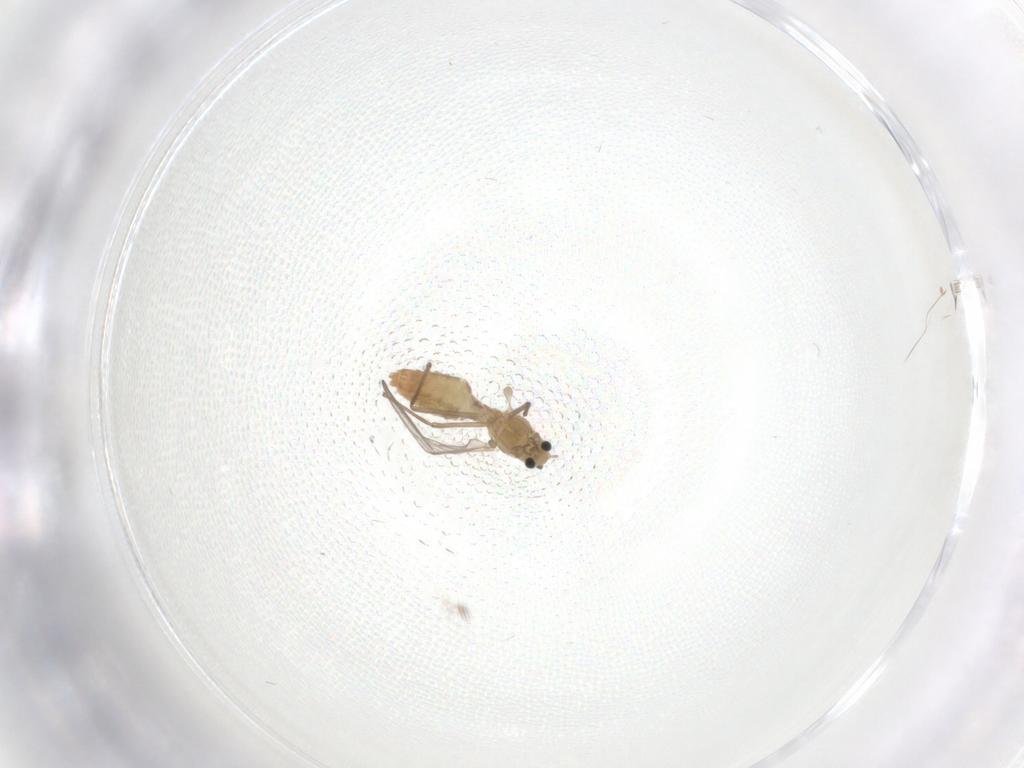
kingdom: Animalia
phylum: Arthropoda
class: Insecta
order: Diptera
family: Chironomidae
